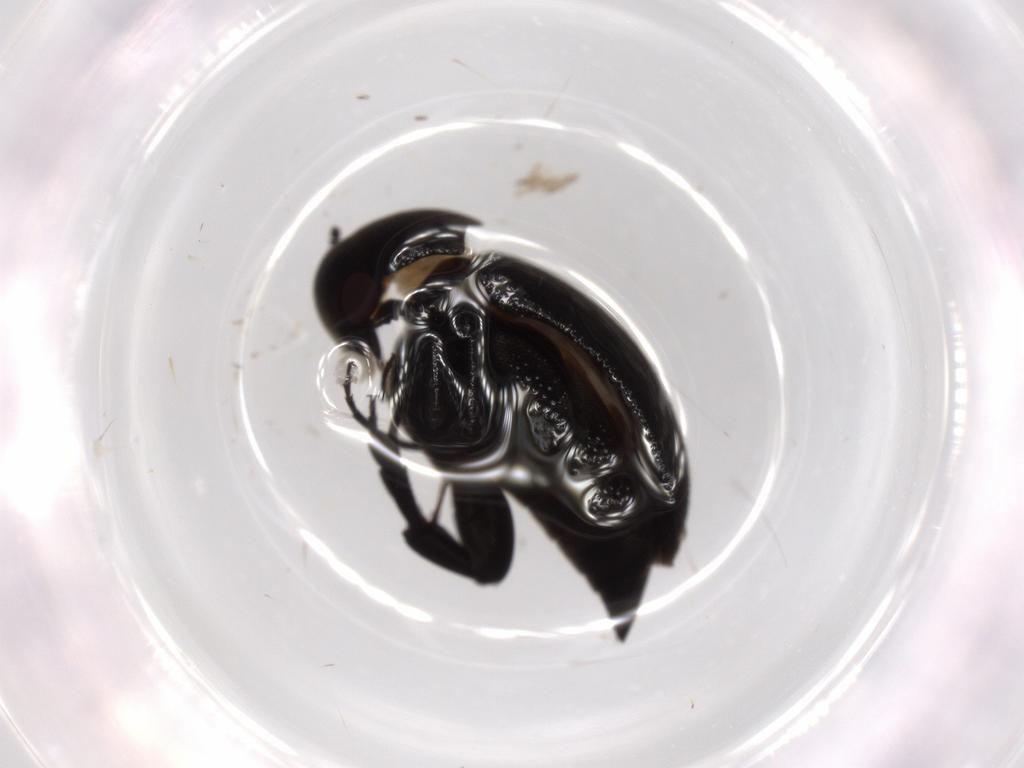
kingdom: Animalia
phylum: Arthropoda
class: Insecta
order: Coleoptera
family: Mordellidae
